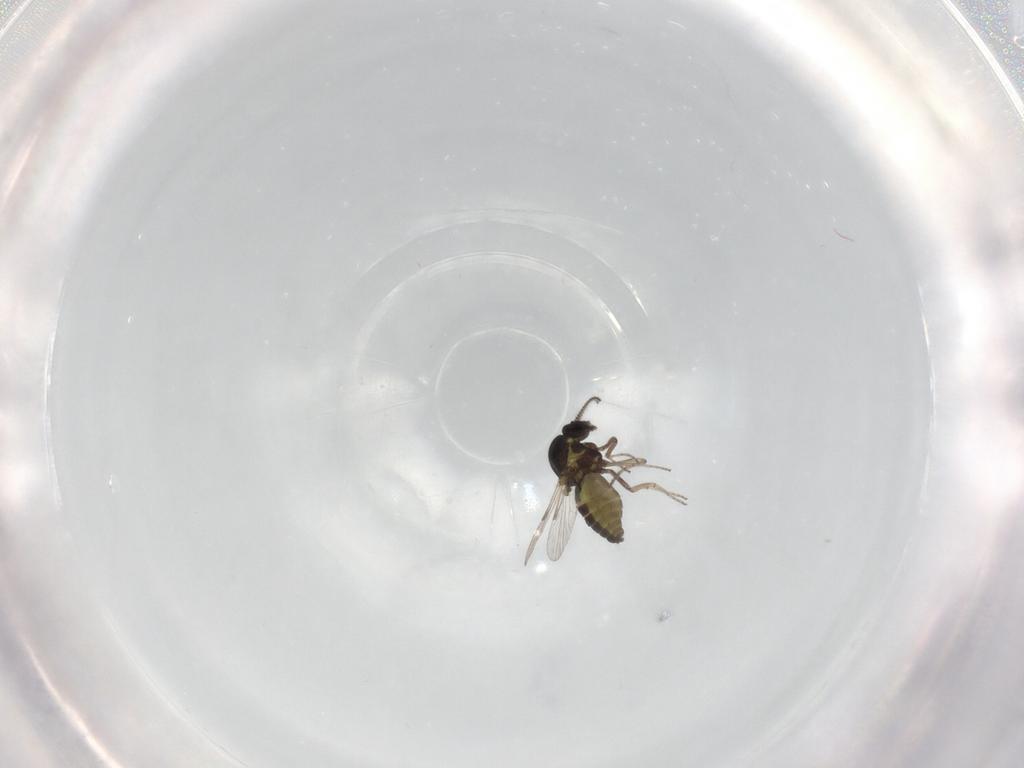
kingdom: Animalia
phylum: Arthropoda
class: Insecta
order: Diptera
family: Ceratopogonidae
